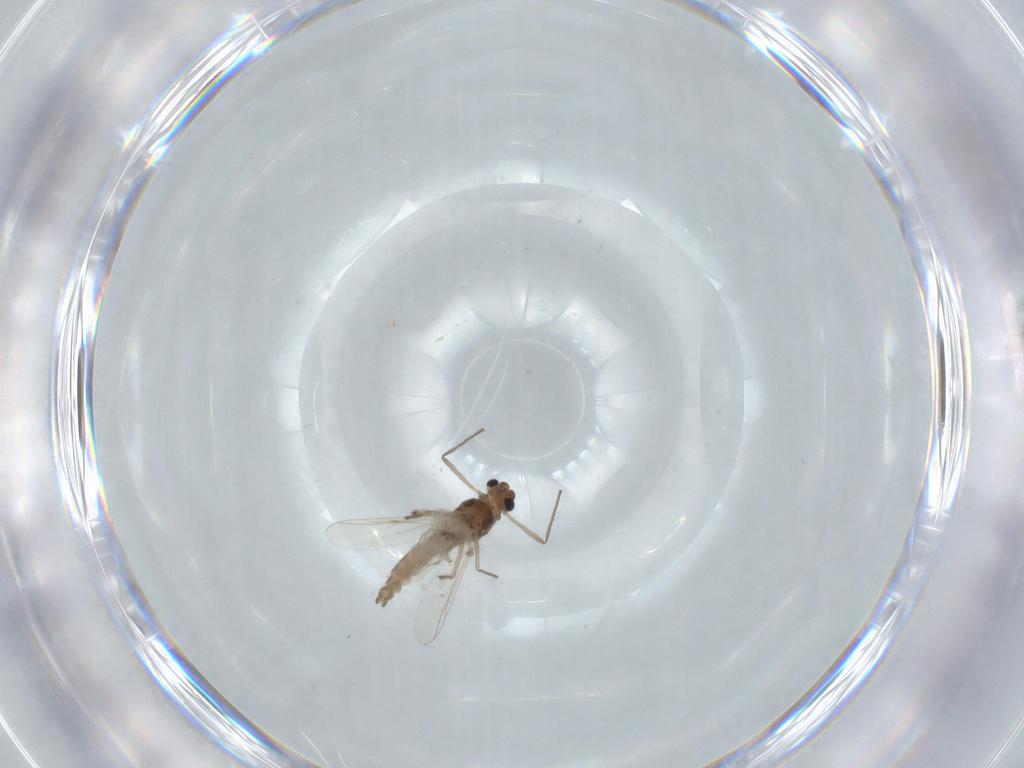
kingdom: Animalia
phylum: Arthropoda
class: Insecta
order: Diptera
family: Chironomidae
